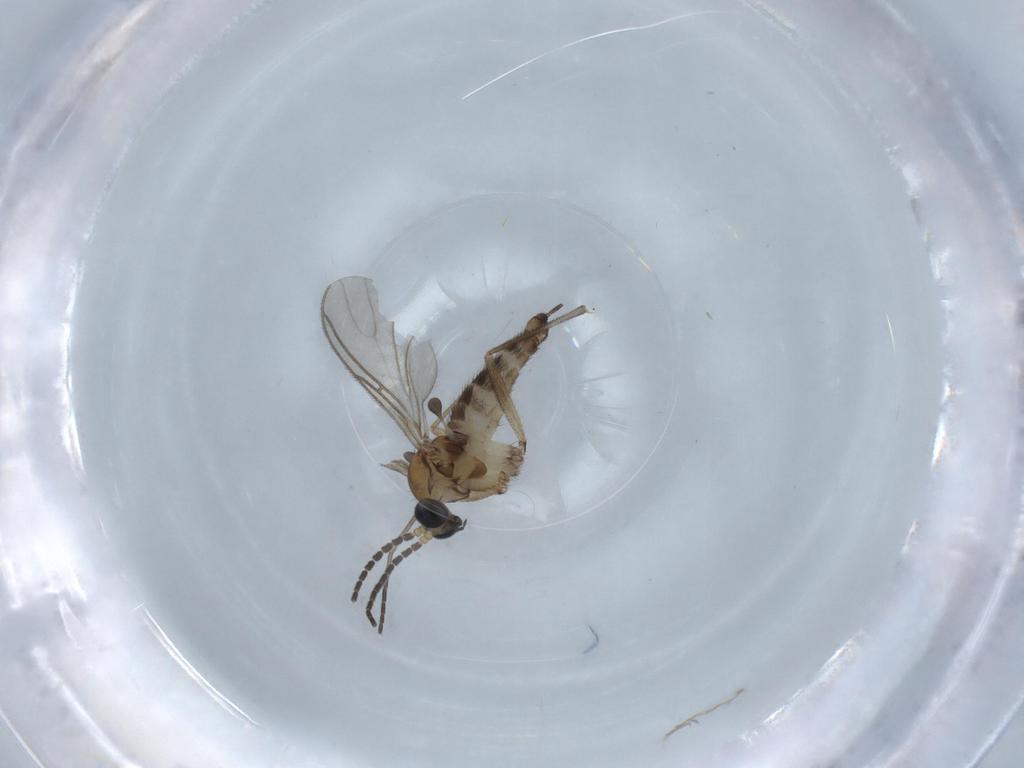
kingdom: Animalia
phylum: Arthropoda
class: Insecta
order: Diptera
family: Sciaridae
